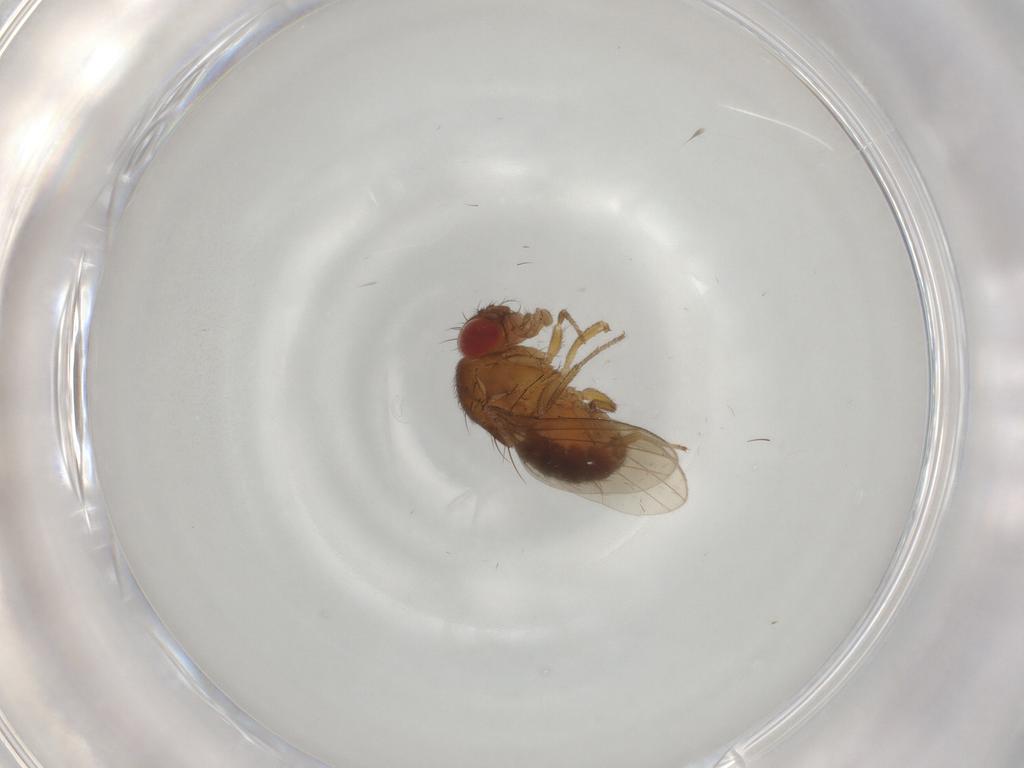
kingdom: Animalia
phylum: Arthropoda
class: Insecta
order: Diptera
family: Drosophilidae
